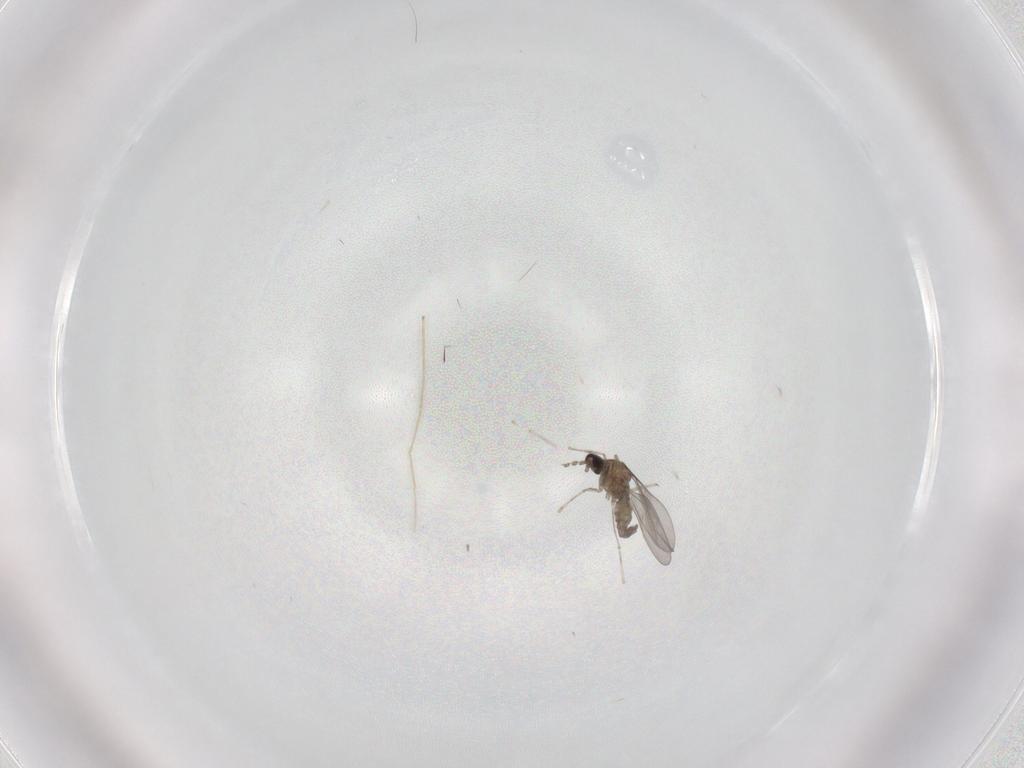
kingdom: Animalia
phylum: Arthropoda
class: Insecta
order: Diptera
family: Chironomidae
